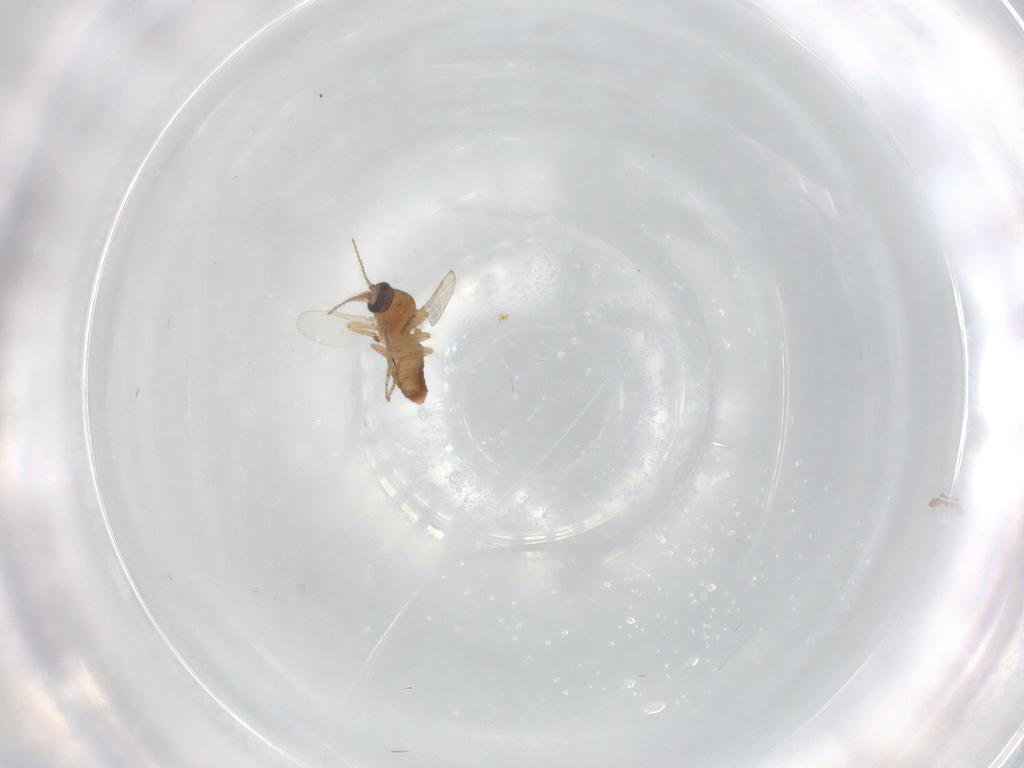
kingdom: Animalia
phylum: Arthropoda
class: Insecta
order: Diptera
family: Ceratopogonidae
